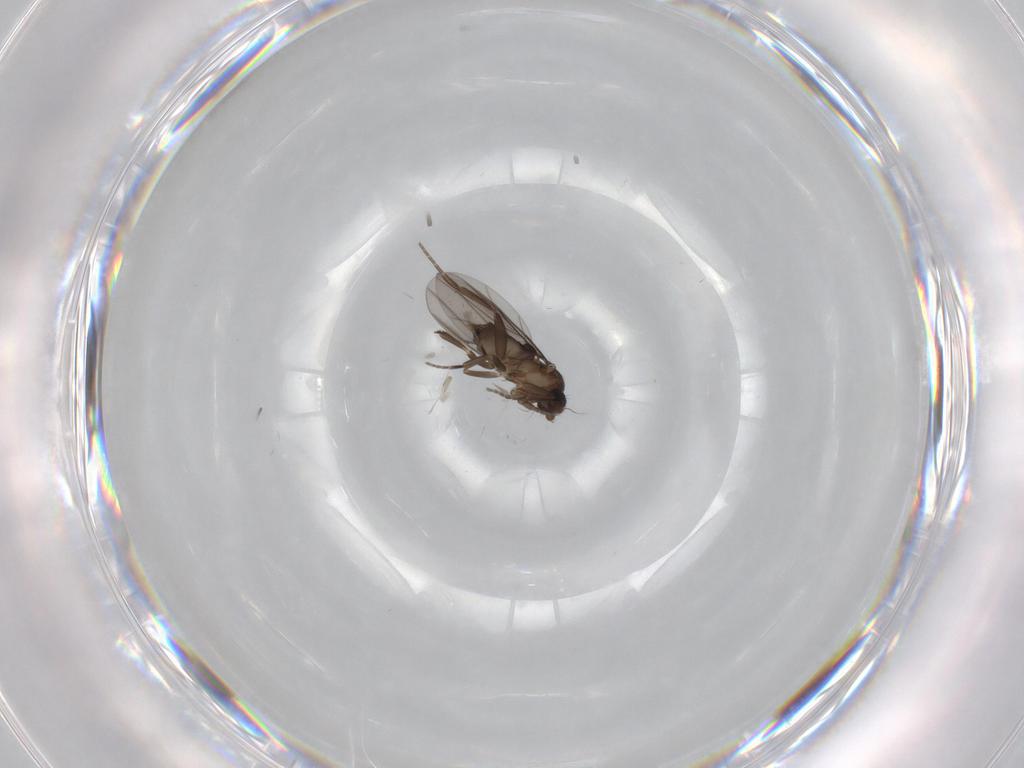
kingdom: Animalia
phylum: Arthropoda
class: Insecta
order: Diptera
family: Phoridae
